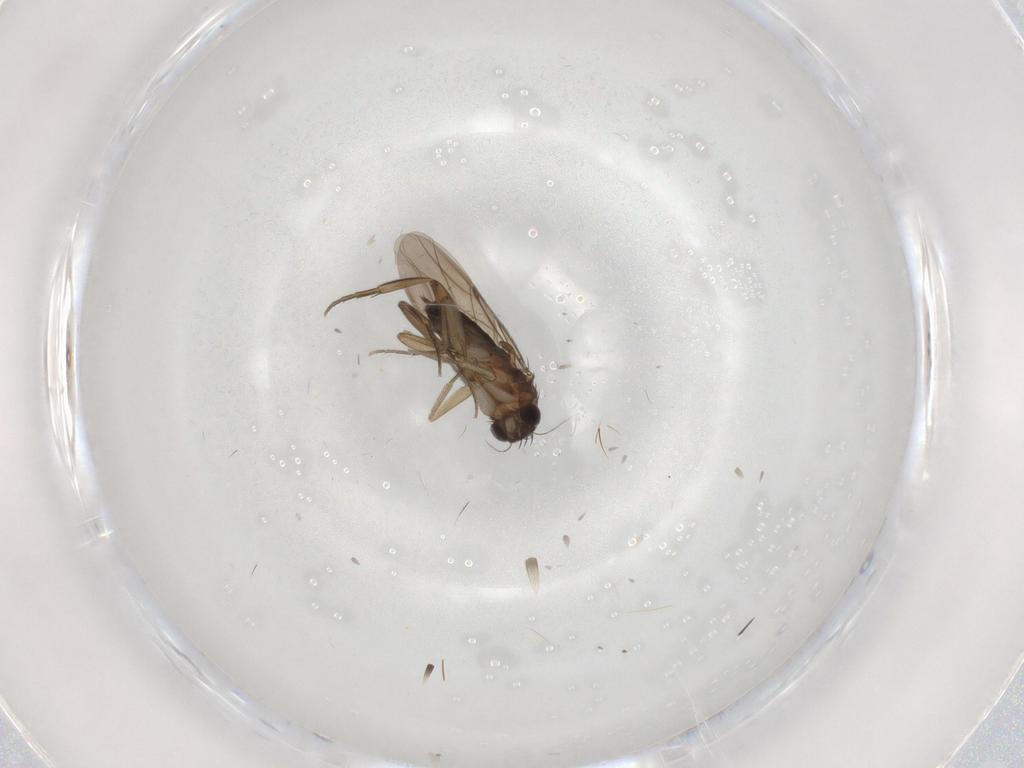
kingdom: Animalia
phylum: Arthropoda
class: Insecta
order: Diptera
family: Phoridae
